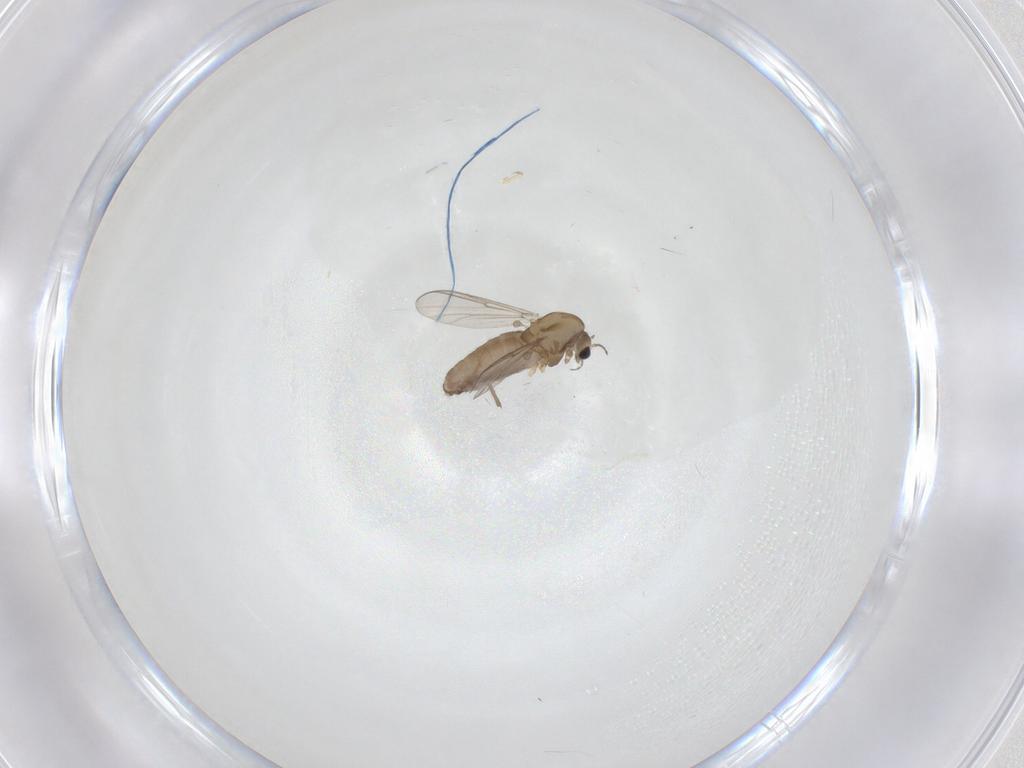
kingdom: Animalia
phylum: Arthropoda
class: Insecta
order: Diptera
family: Chironomidae
